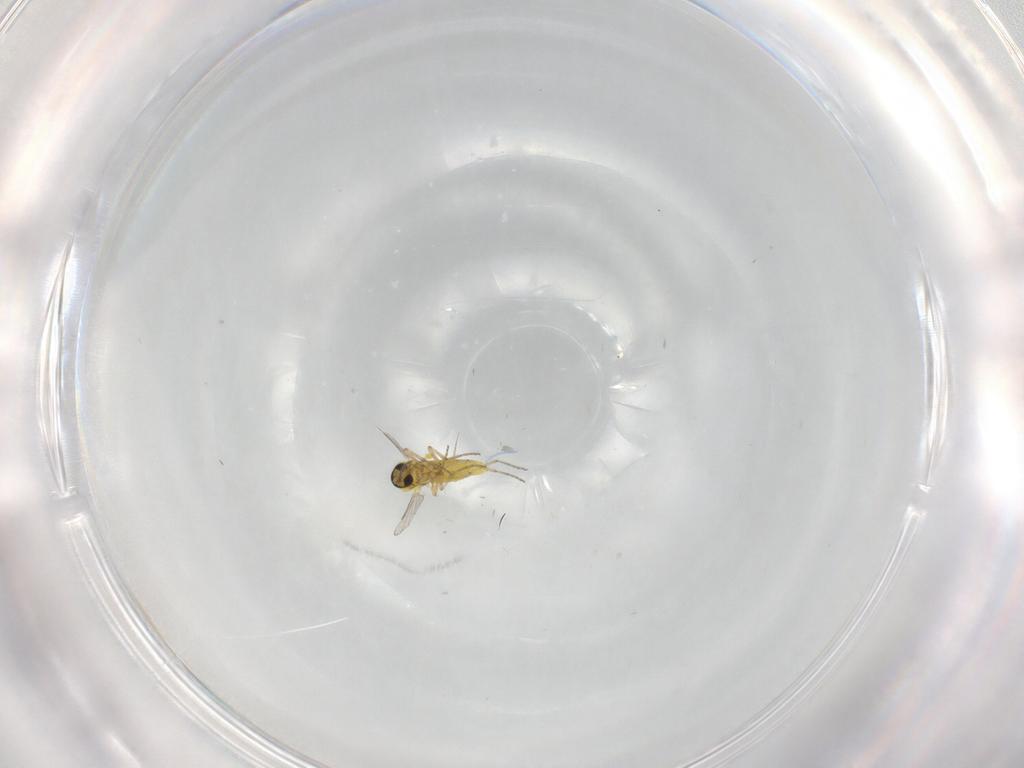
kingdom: Animalia
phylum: Arthropoda
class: Insecta
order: Diptera
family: Ceratopogonidae
